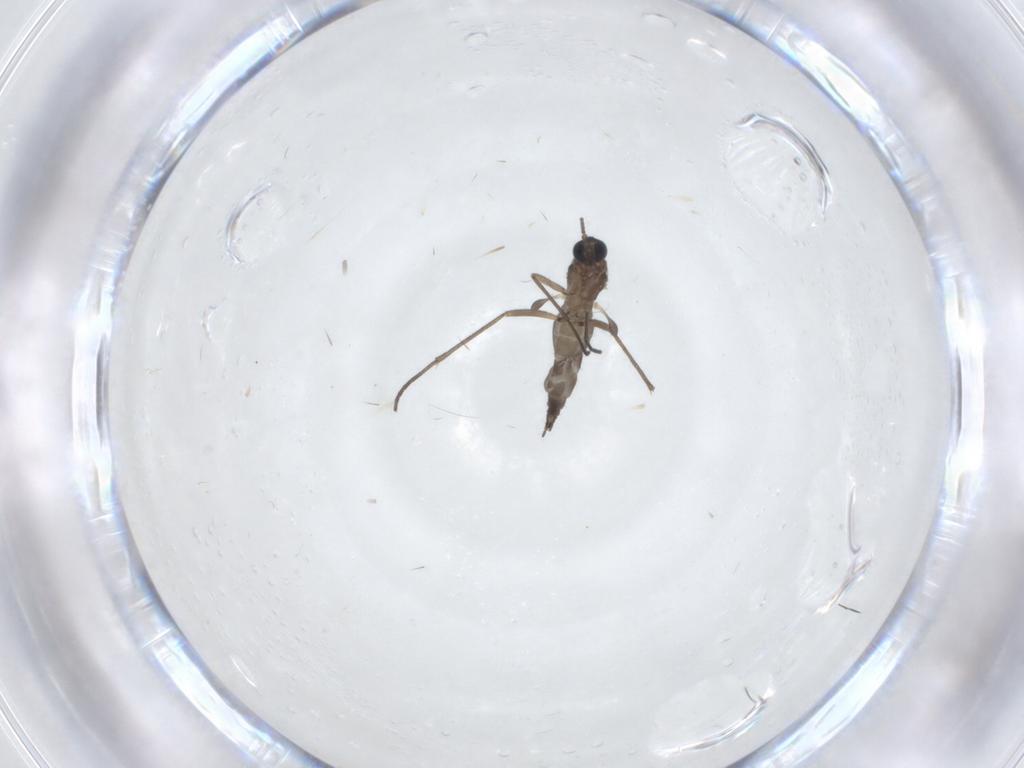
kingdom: Animalia
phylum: Arthropoda
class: Insecta
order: Diptera
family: Sciaridae
